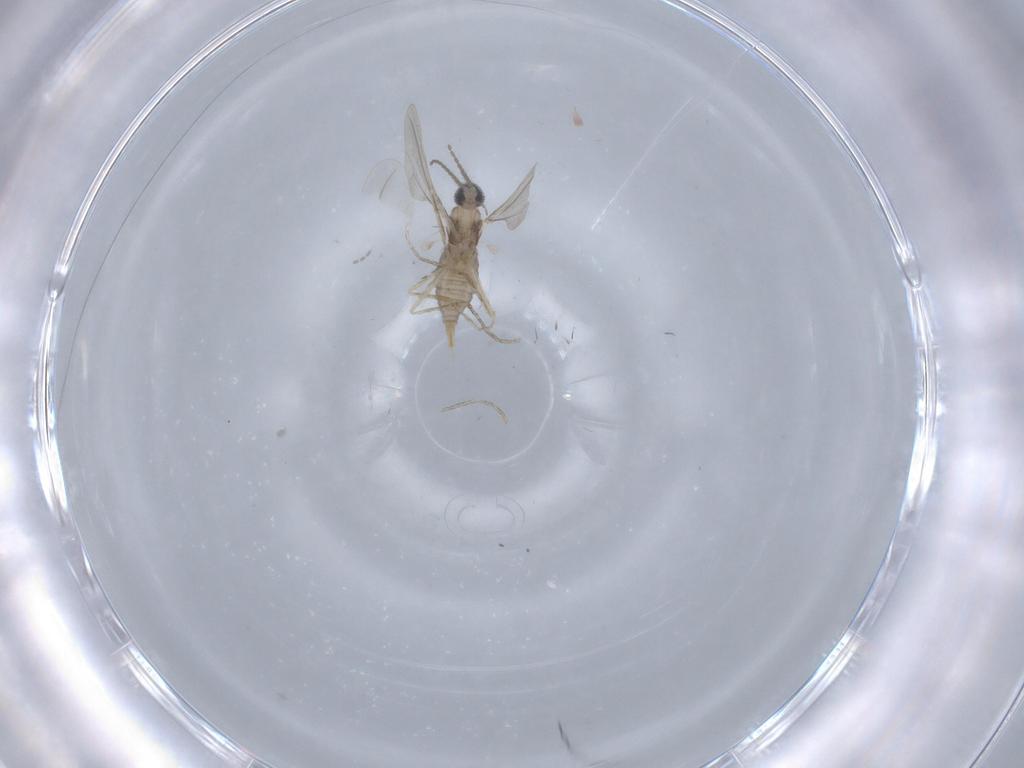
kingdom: Animalia
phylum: Arthropoda
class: Insecta
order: Diptera
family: Cecidomyiidae
